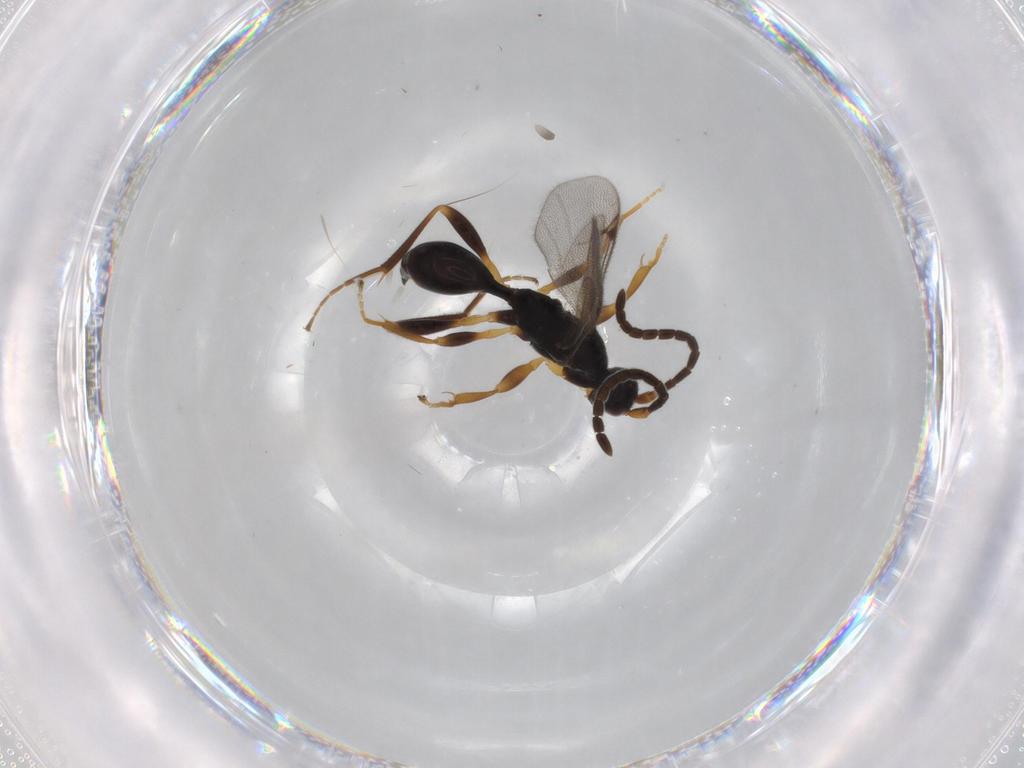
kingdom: Animalia
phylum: Arthropoda
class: Insecta
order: Hymenoptera
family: Proctotrupidae
